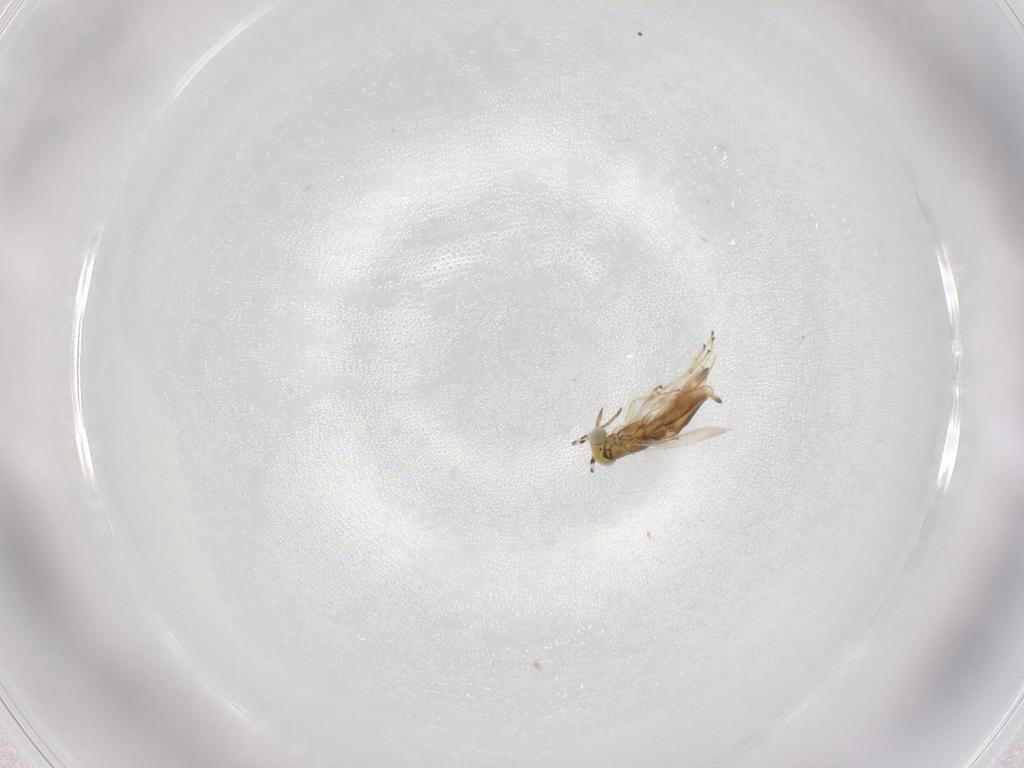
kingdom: Animalia
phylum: Arthropoda
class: Insecta
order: Hymenoptera
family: Encyrtidae
